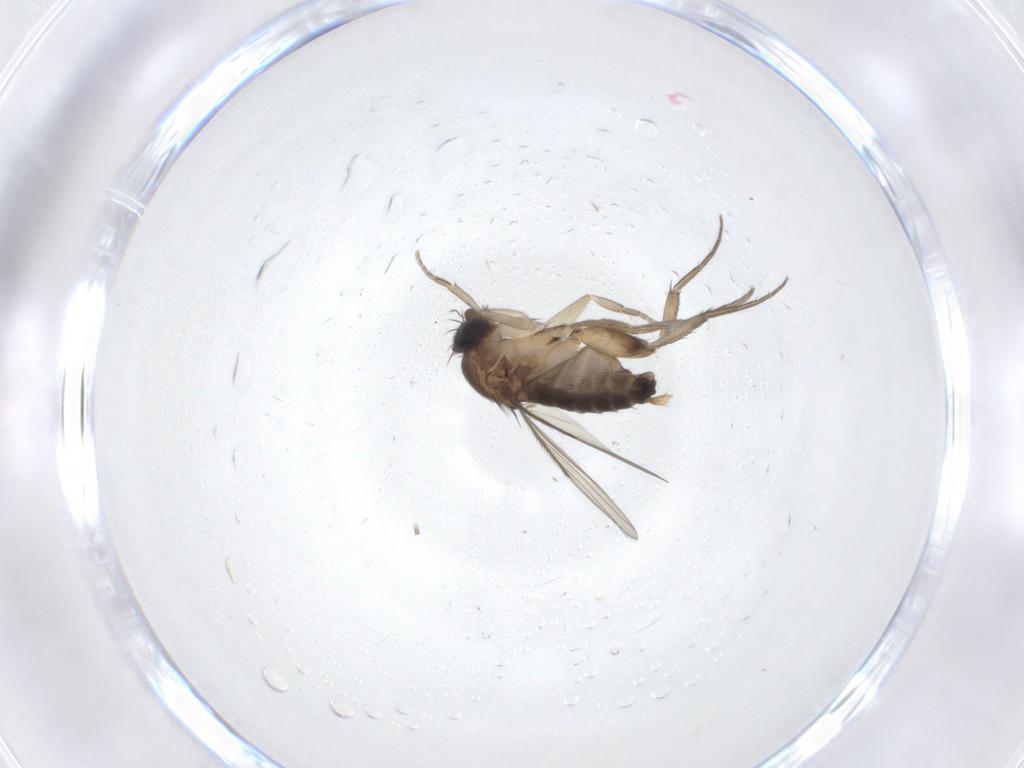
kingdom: Animalia
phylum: Arthropoda
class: Insecta
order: Diptera
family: Phoridae
